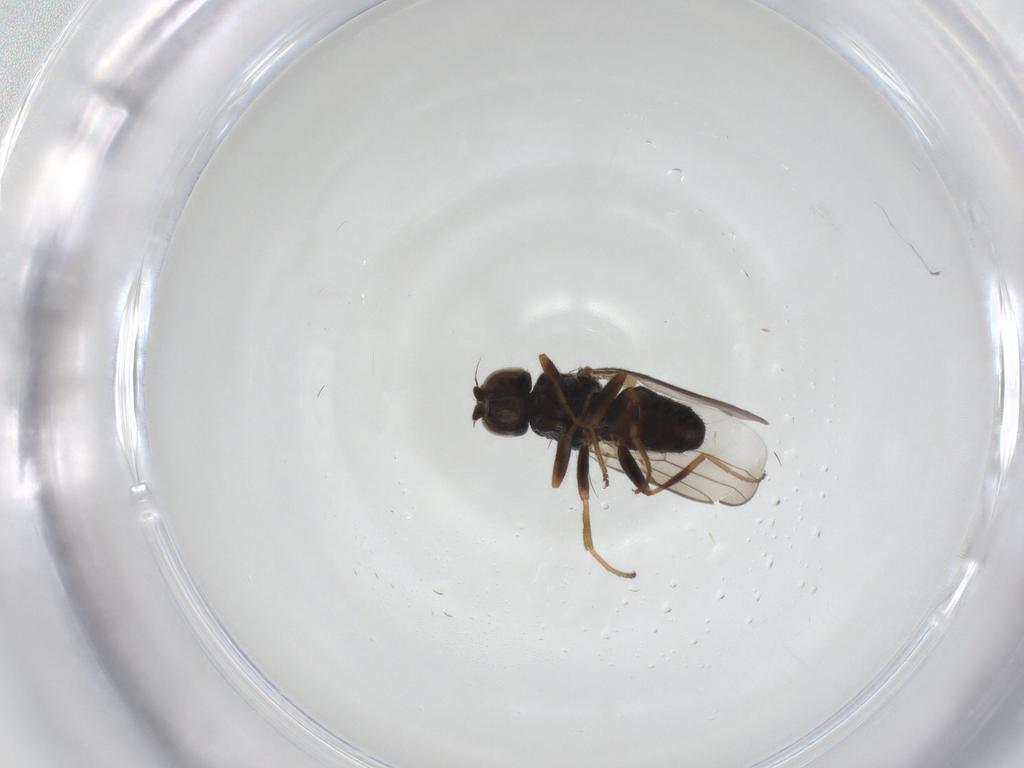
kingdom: Animalia
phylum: Arthropoda
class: Insecta
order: Diptera
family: Chloropidae
